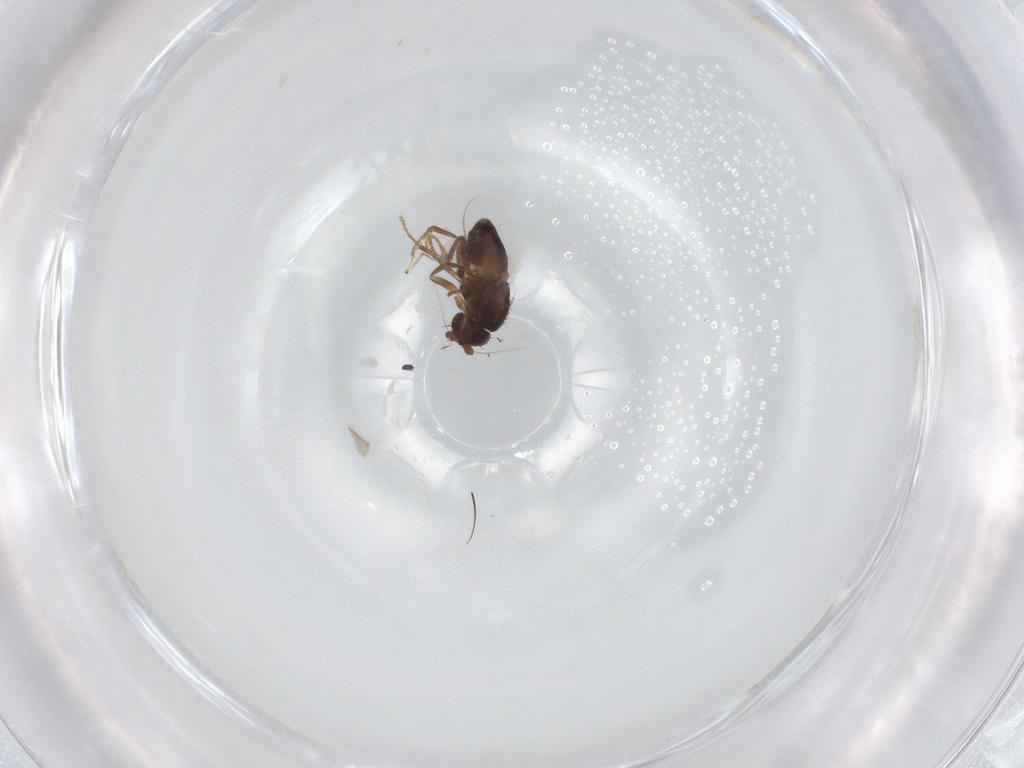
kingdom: Animalia
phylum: Arthropoda
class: Insecta
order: Diptera
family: Sphaeroceridae
